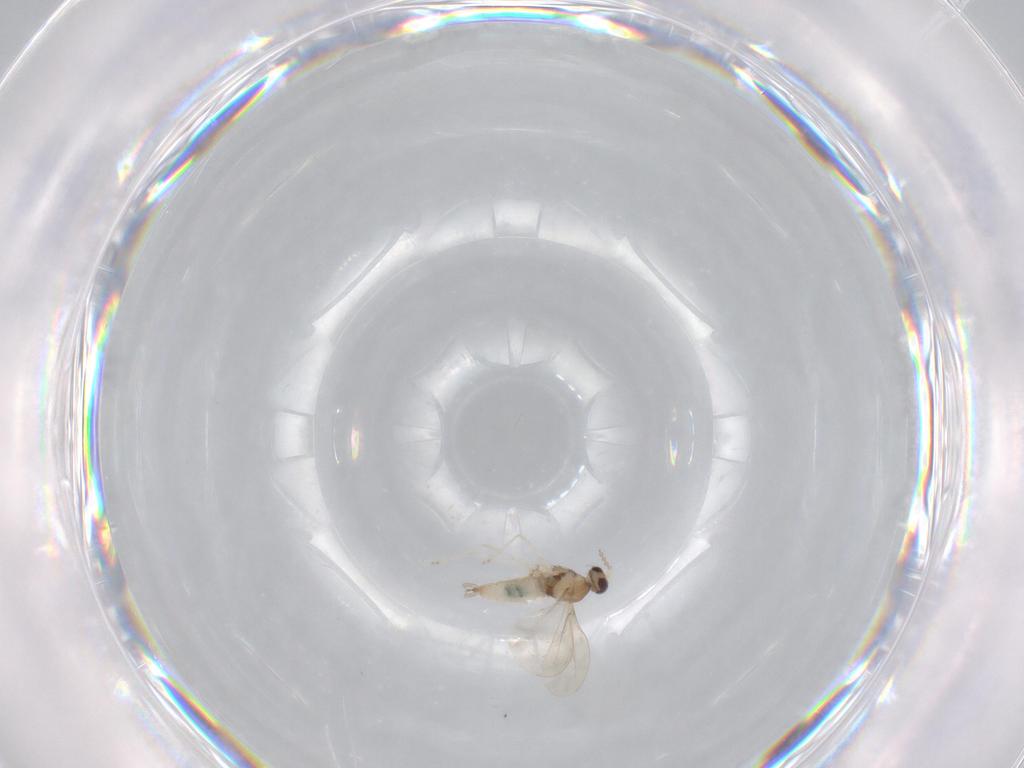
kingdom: Animalia
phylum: Arthropoda
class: Insecta
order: Diptera
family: Cecidomyiidae
